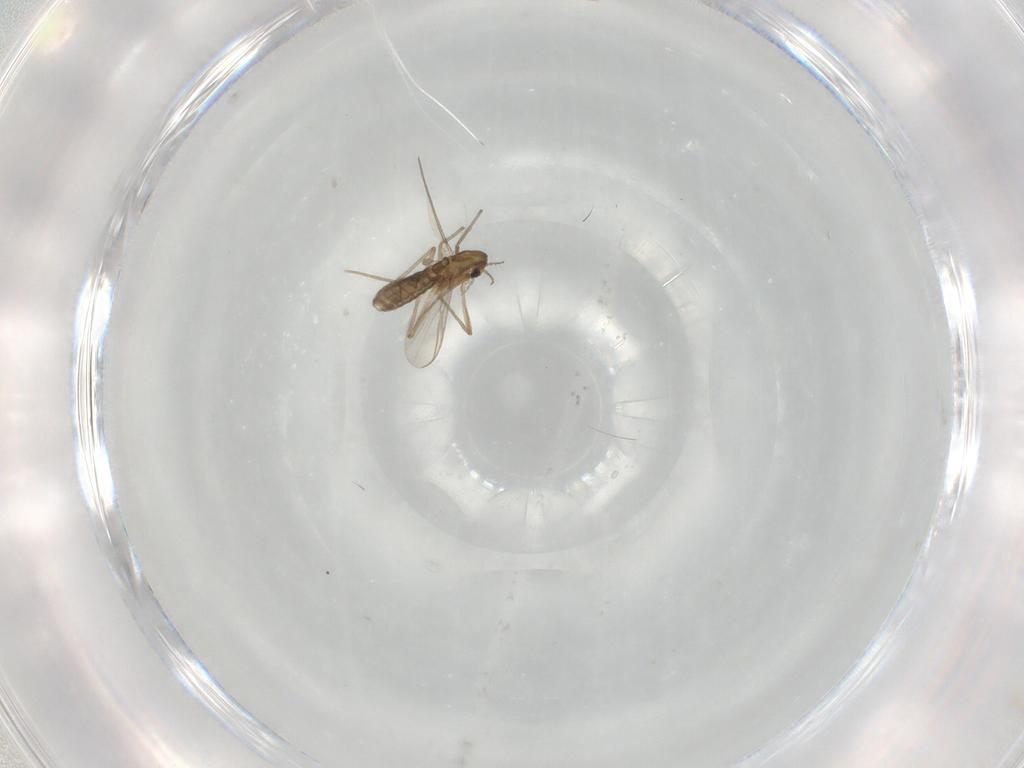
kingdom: Animalia
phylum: Arthropoda
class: Insecta
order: Diptera
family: Chironomidae
